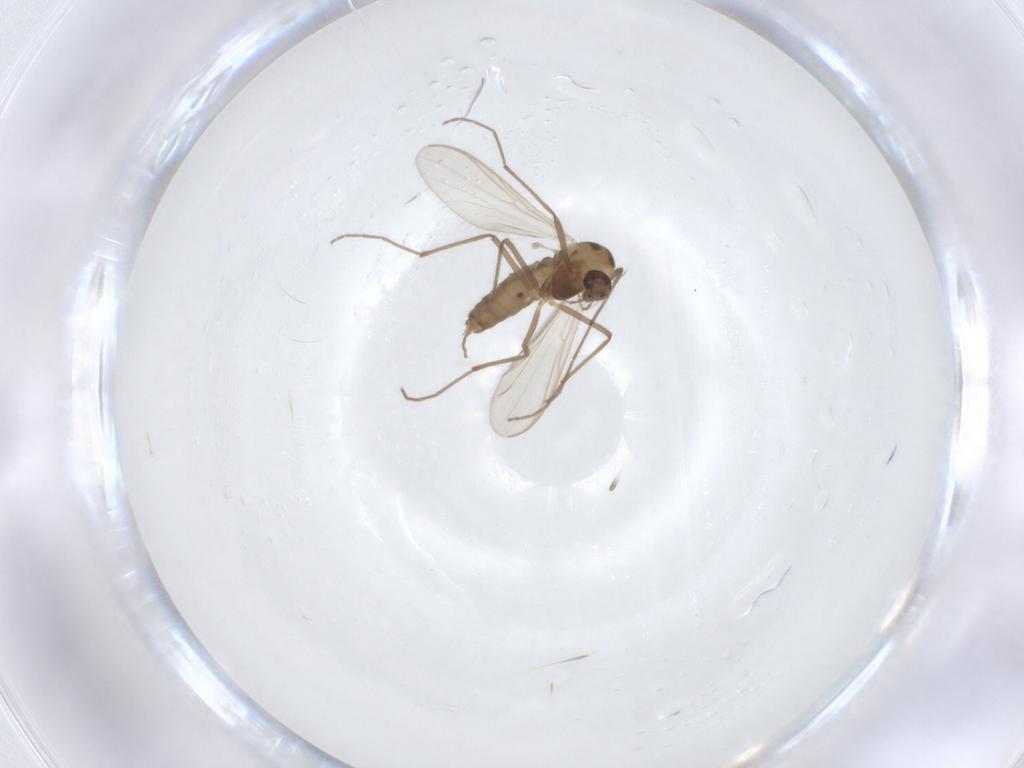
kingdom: Animalia
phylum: Arthropoda
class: Insecta
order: Diptera
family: Chironomidae
